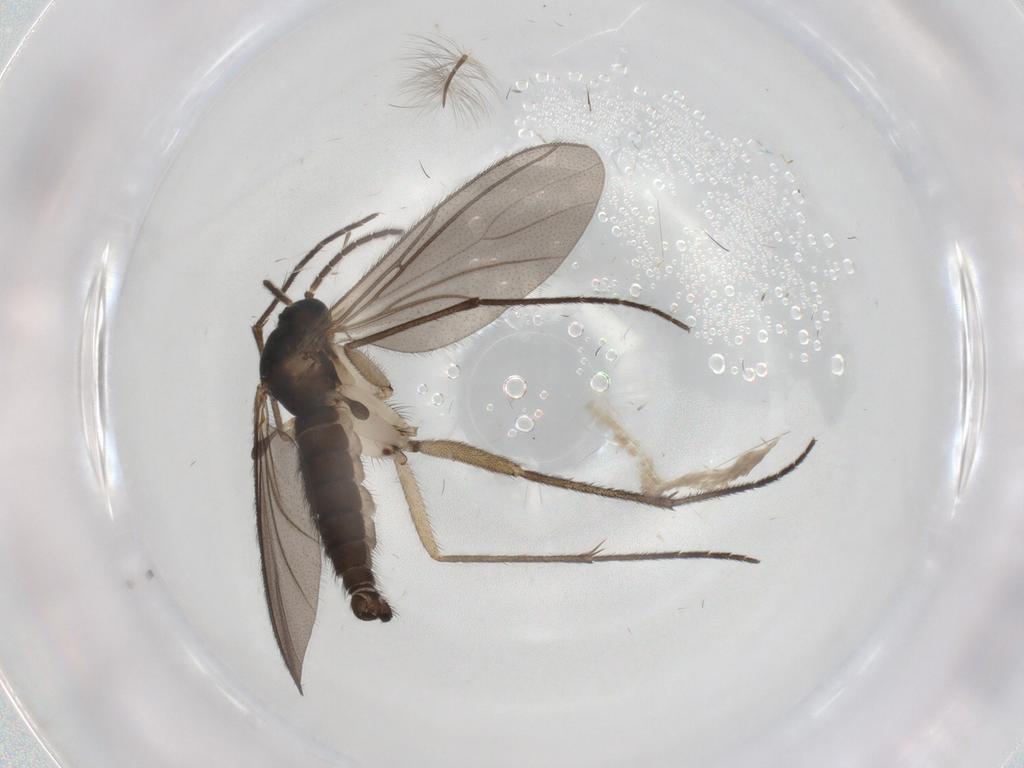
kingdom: Animalia
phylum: Arthropoda
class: Insecta
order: Diptera
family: Sciaridae
